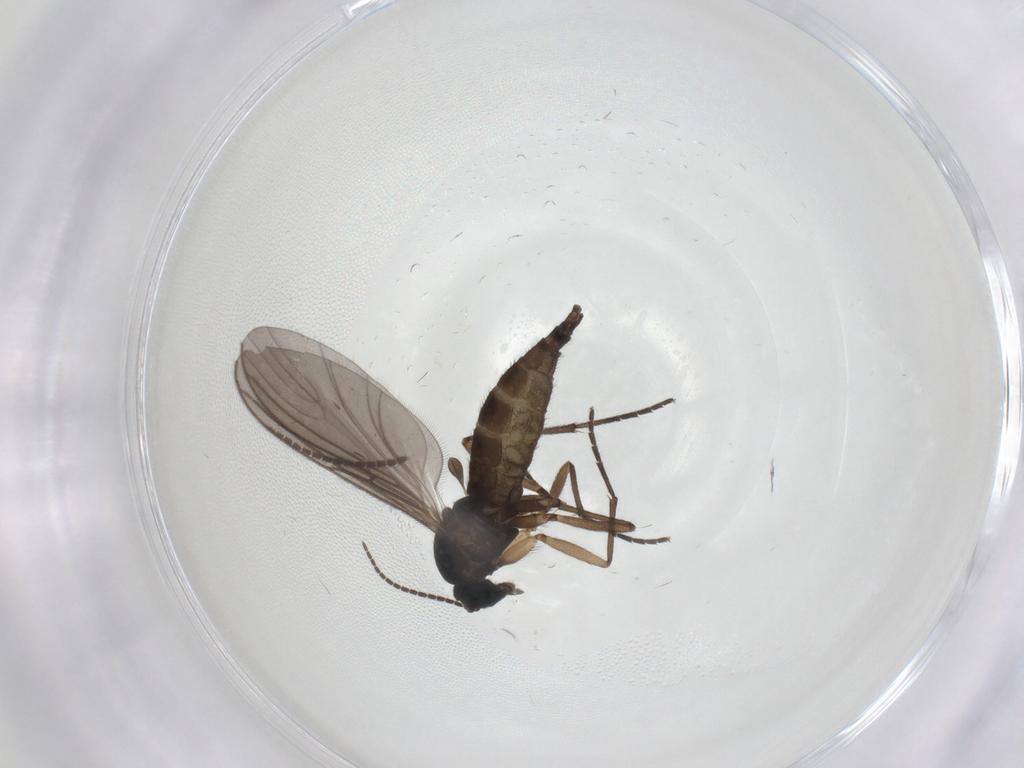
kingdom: Animalia
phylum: Arthropoda
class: Insecta
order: Diptera
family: Sciaridae
